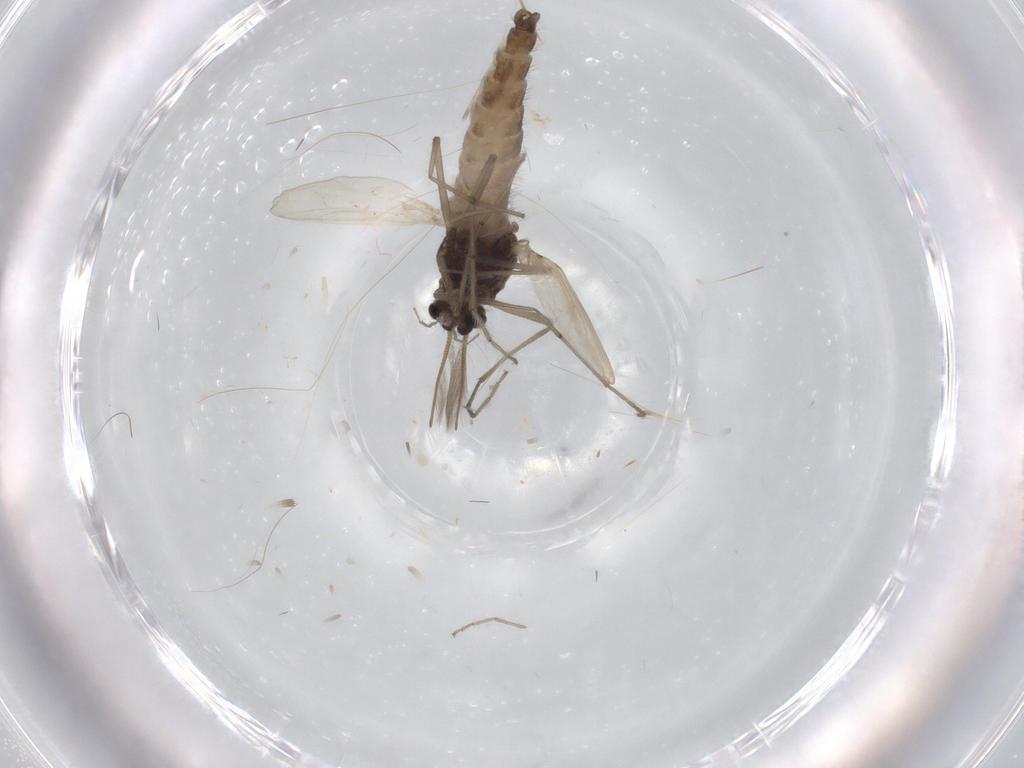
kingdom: Animalia
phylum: Arthropoda
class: Insecta
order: Diptera
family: Chironomidae
